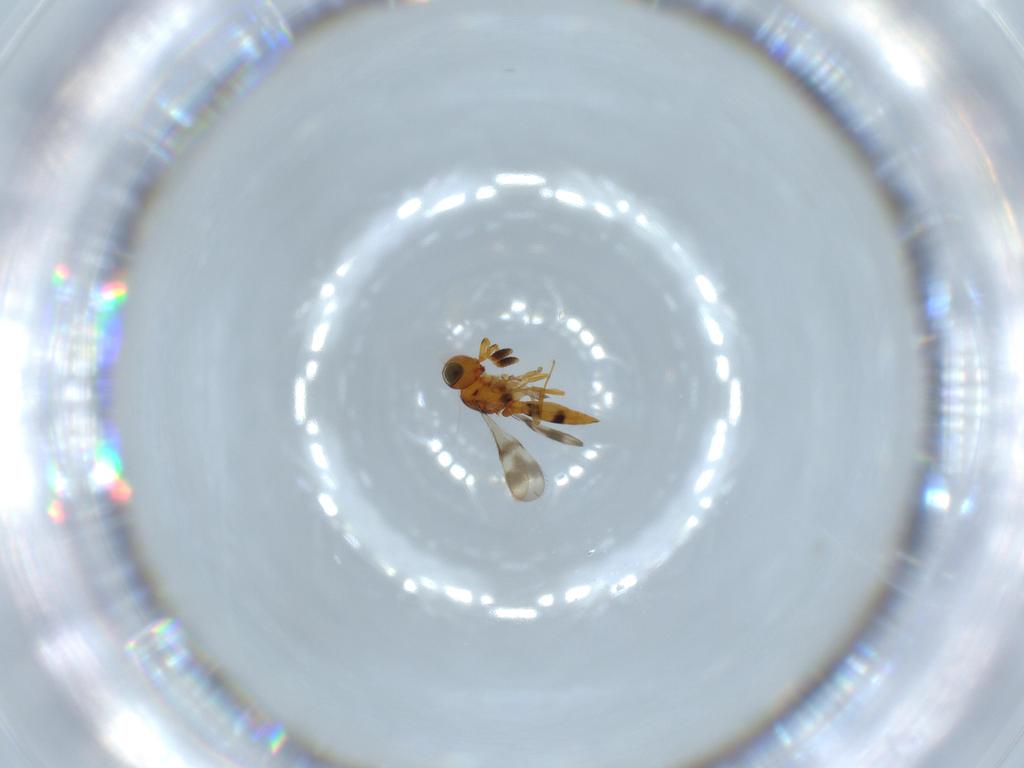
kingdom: Animalia
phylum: Arthropoda
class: Insecta
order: Hymenoptera
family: Scelionidae
